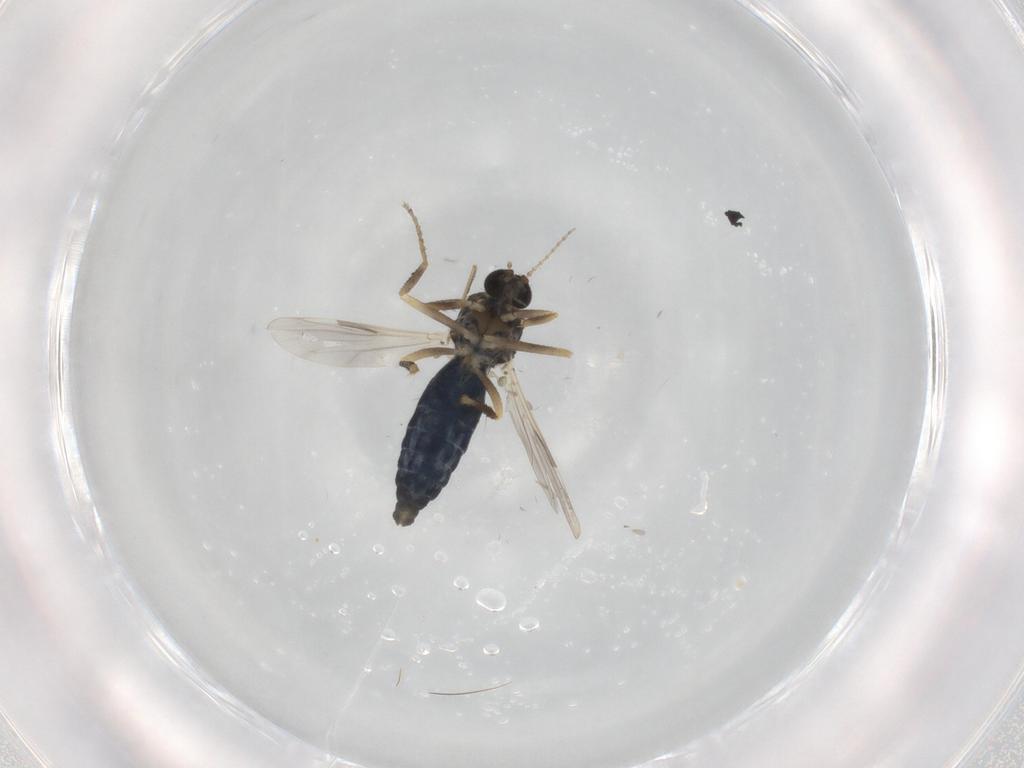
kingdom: Animalia
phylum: Arthropoda
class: Insecta
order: Diptera
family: Ceratopogonidae
